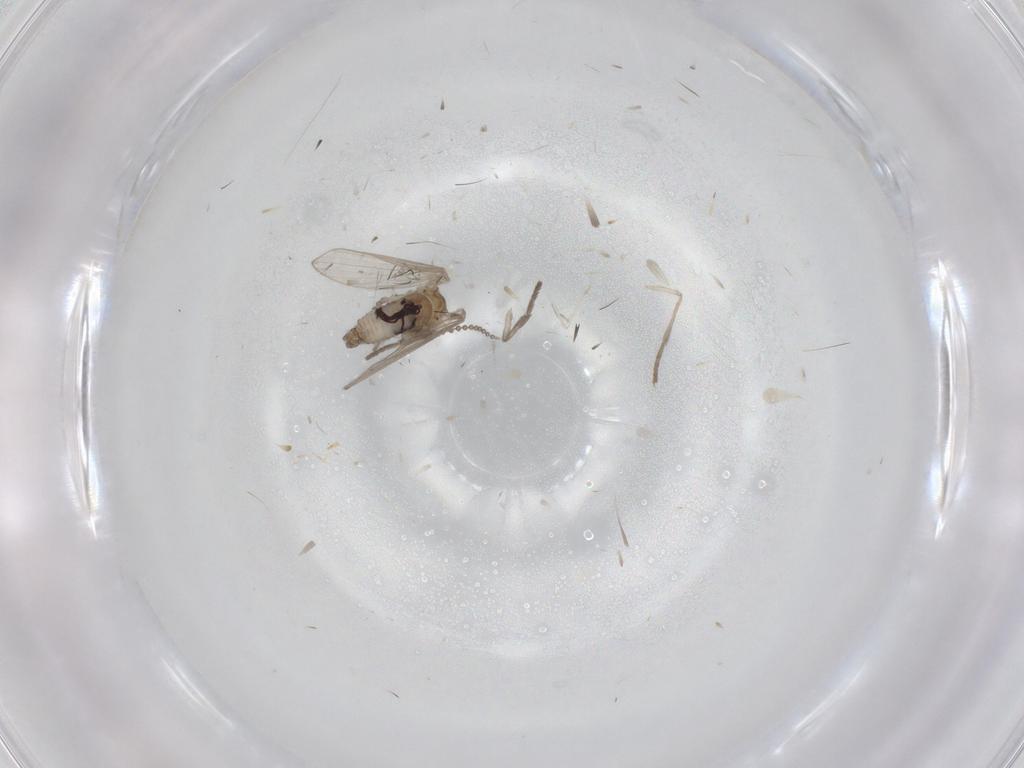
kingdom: Animalia
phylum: Arthropoda
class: Insecta
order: Diptera
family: Psychodidae
